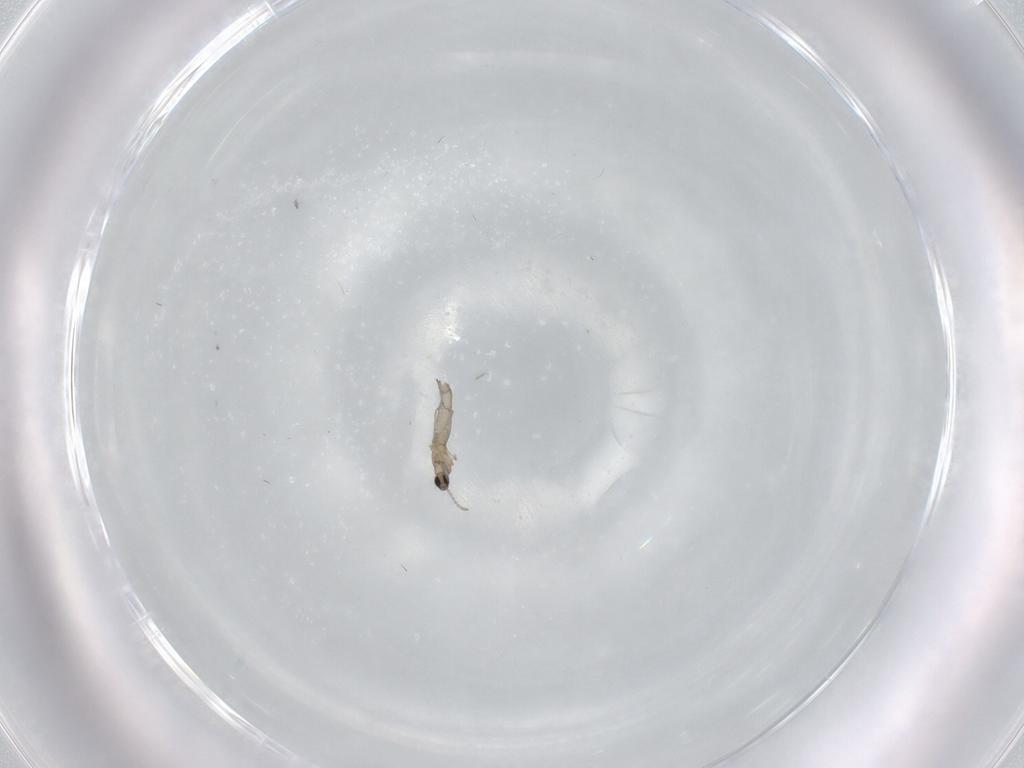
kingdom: Animalia
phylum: Arthropoda
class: Insecta
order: Diptera
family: Cecidomyiidae
